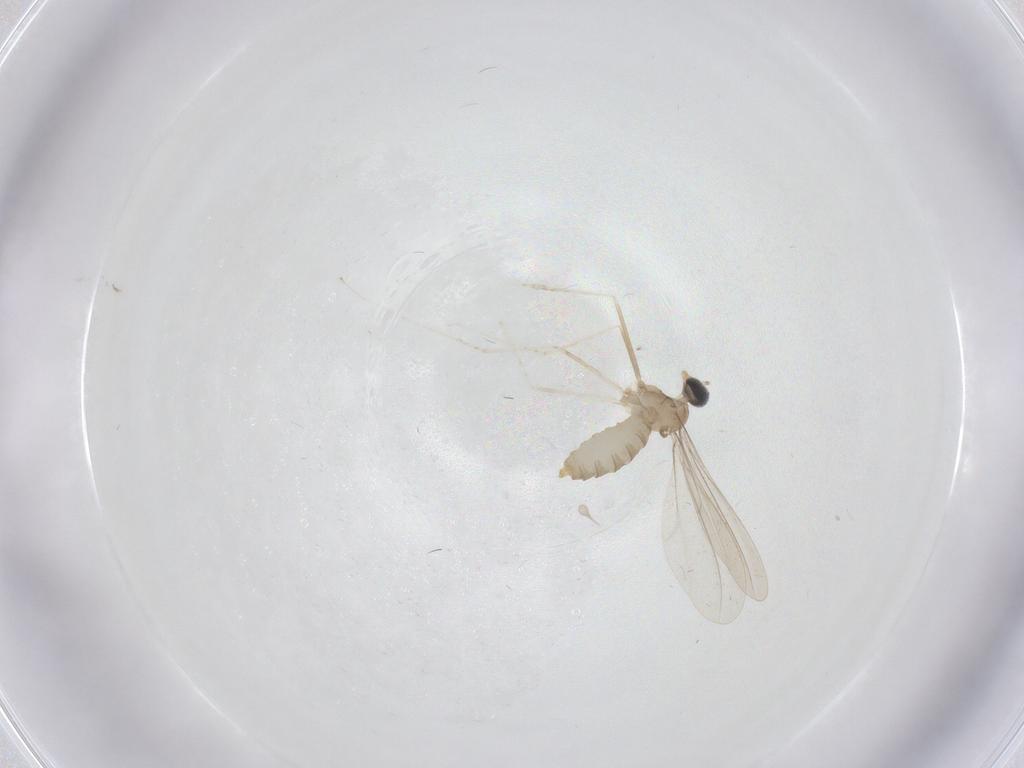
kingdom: Animalia
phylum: Arthropoda
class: Insecta
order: Diptera
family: Cecidomyiidae
